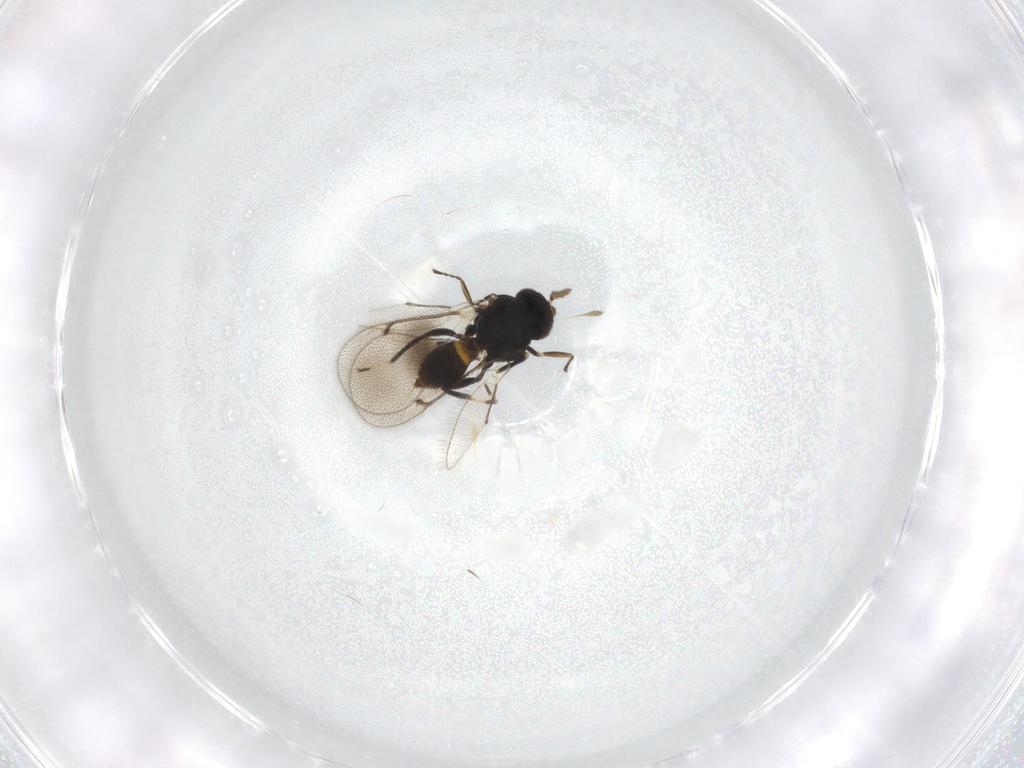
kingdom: Animalia
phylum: Arthropoda
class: Insecta
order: Hymenoptera
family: Eulophidae
